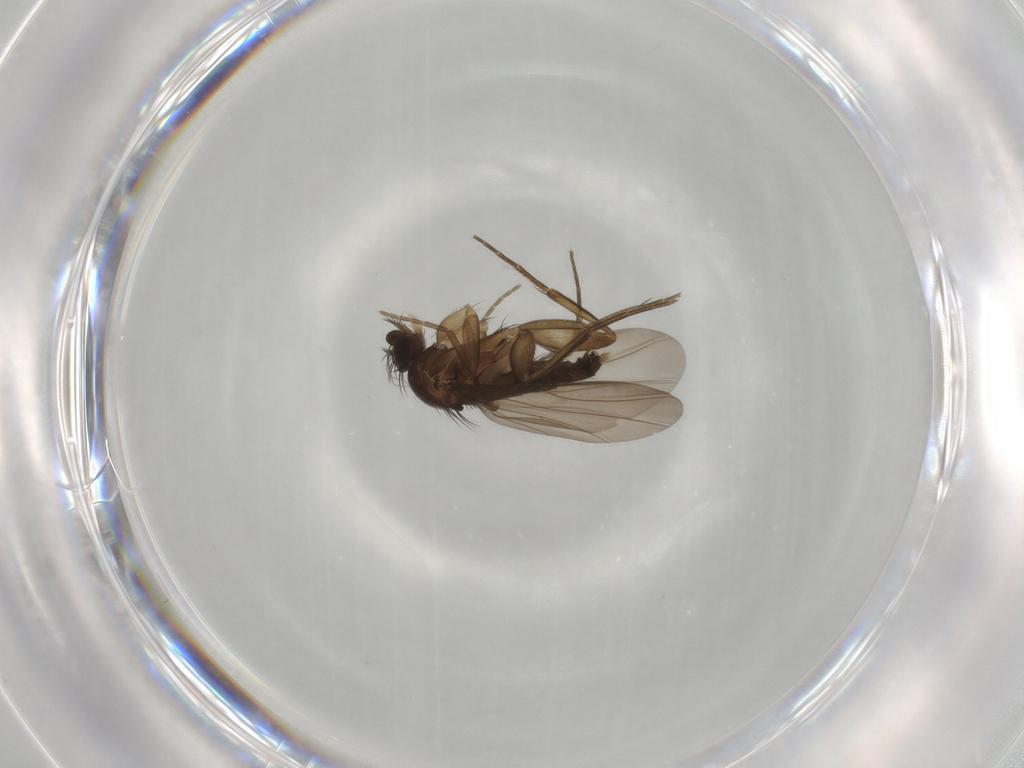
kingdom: Animalia
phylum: Arthropoda
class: Insecta
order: Diptera
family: Phoridae
